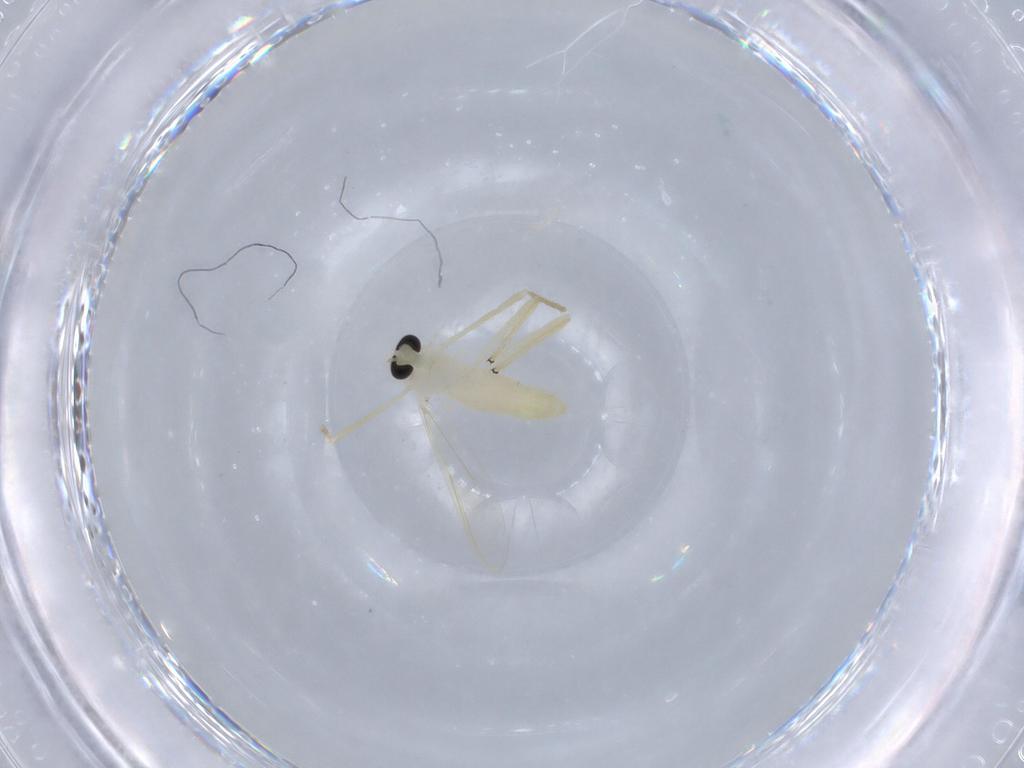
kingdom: Animalia
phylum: Arthropoda
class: Insecta
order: Diptera
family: Chironomidae
